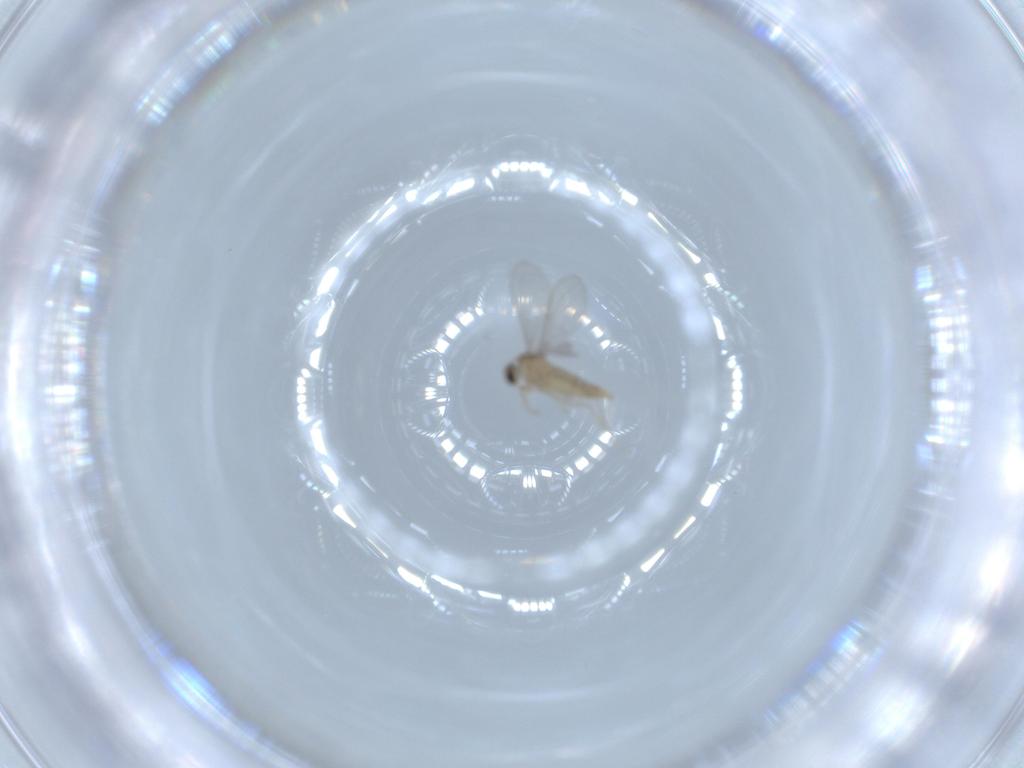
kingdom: Animalia
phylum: Arthropoda
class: Insecta
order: Diptera
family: Cecidomyiidae
